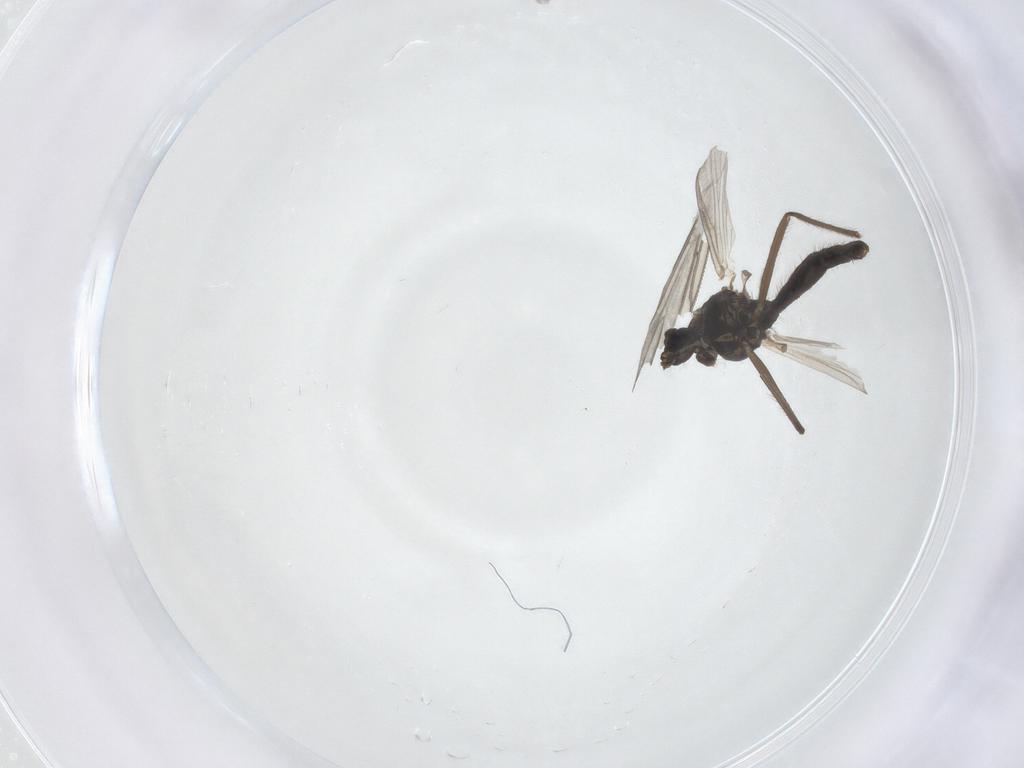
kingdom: Animalia
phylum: Arthropoda
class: Insecta
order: Diptera
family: Chironomidae
